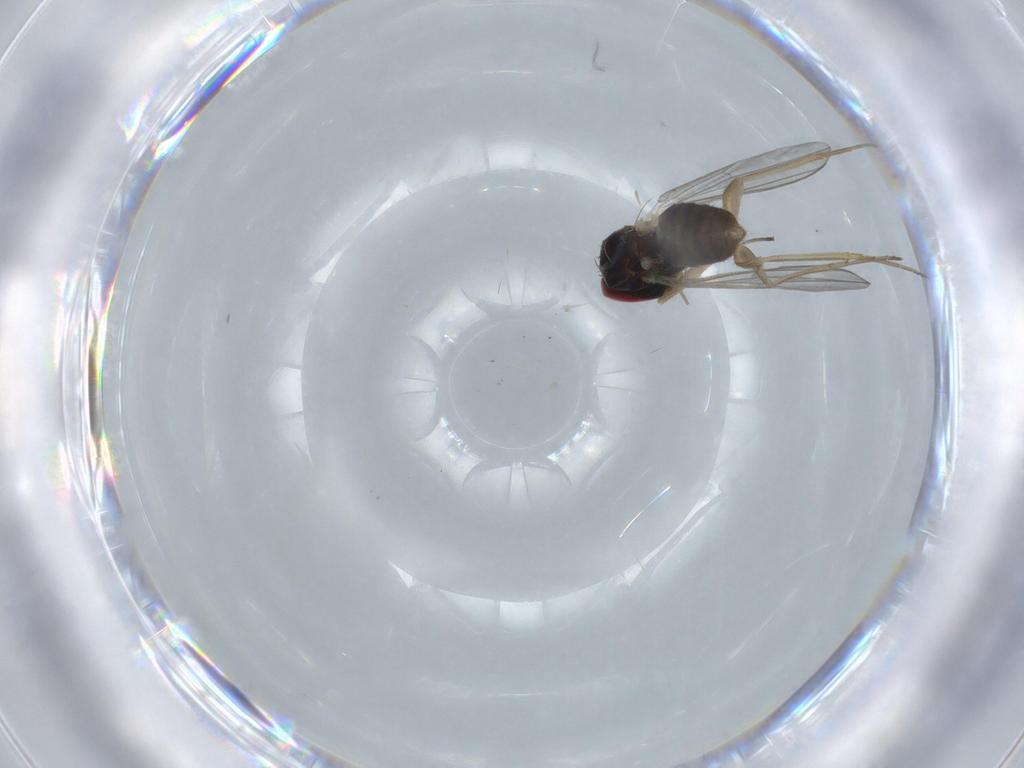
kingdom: Animalia
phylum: Arthropoda
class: Insecta
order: Diptera
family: Dolichopodidae
